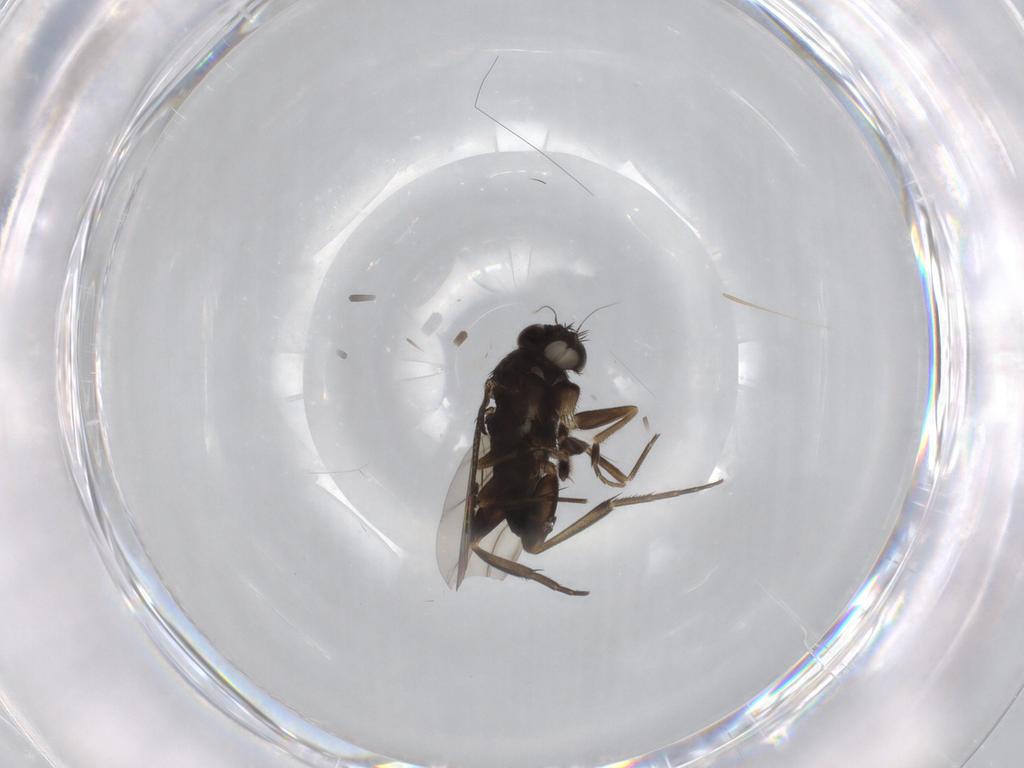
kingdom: Animalia
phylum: Arthropoda
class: Insecta
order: Diptera
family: Phoridae
